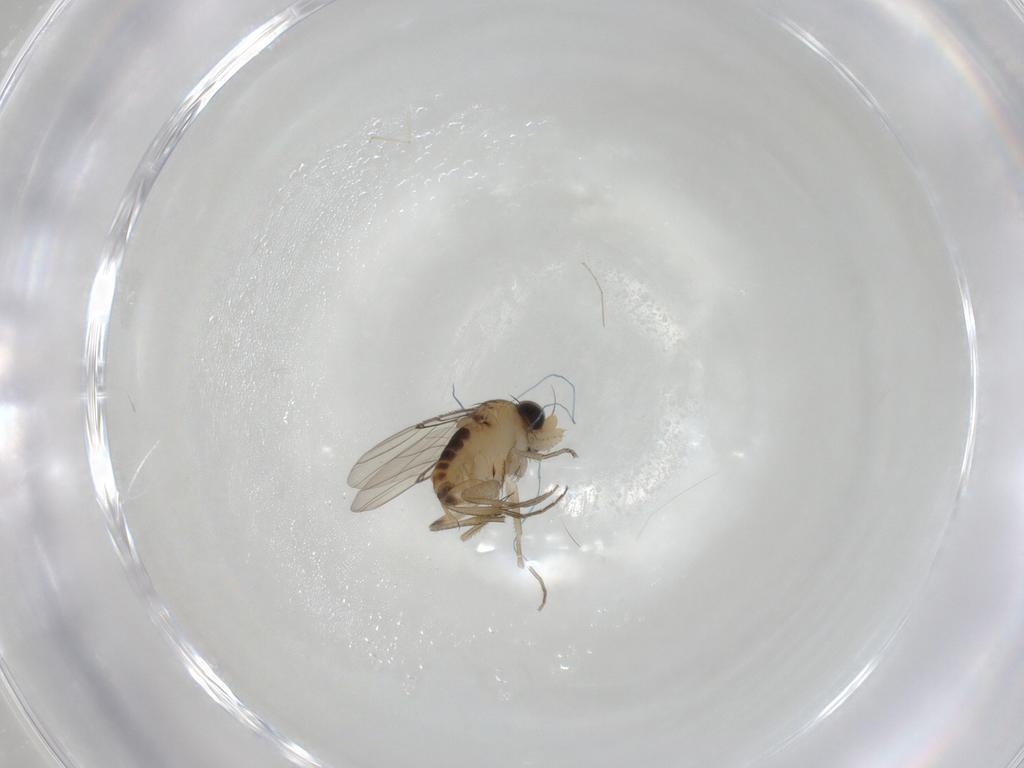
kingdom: Animalia
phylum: Arthropoda
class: Insecta
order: Diptera
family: Phoridae
